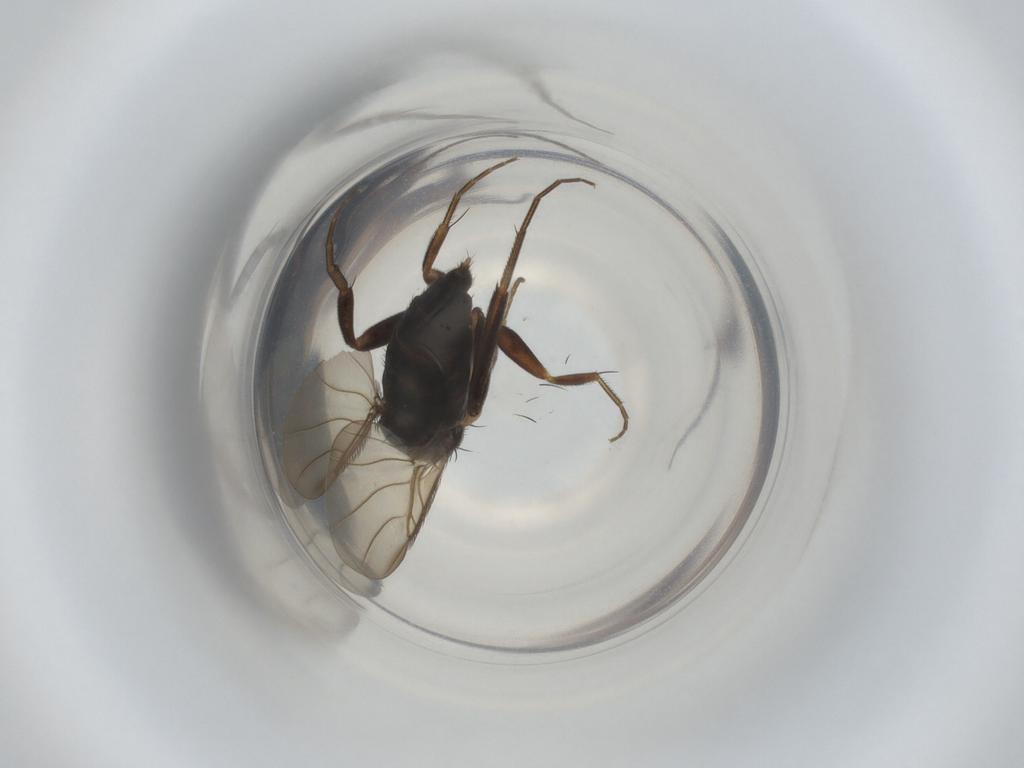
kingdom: Animalia
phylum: Arthropoda
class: Insecta
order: Diptera
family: Phoridae
